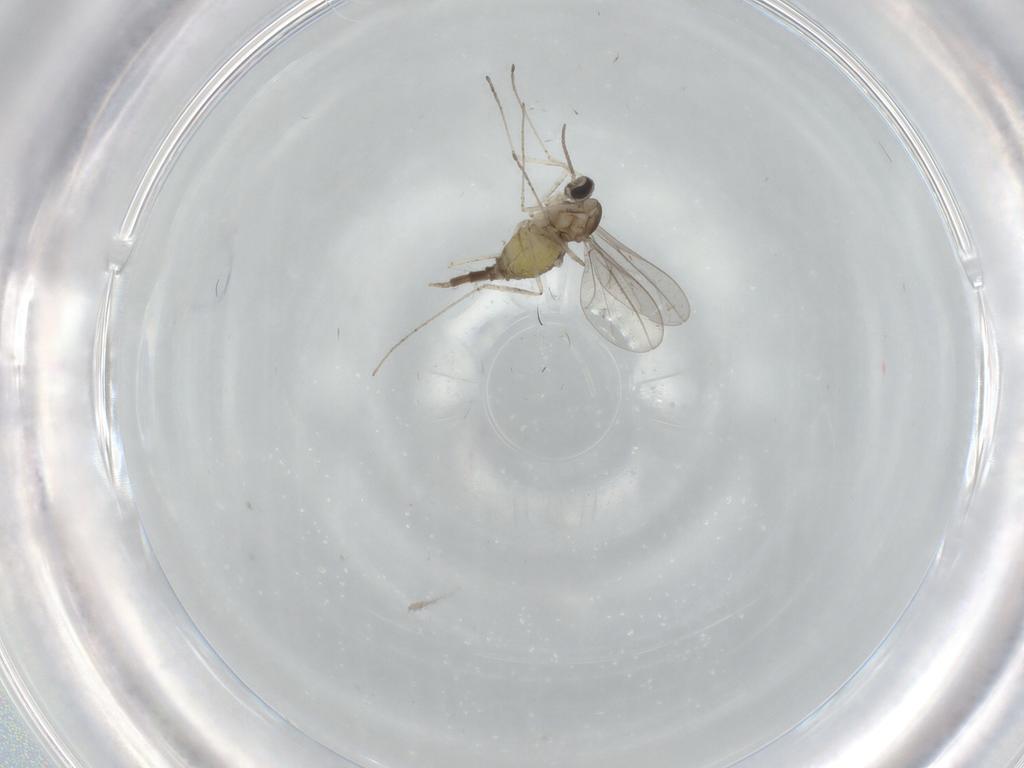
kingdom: Animalia
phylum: Arthropoda
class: Insecta
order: Diptera
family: Cecidomyiidae
